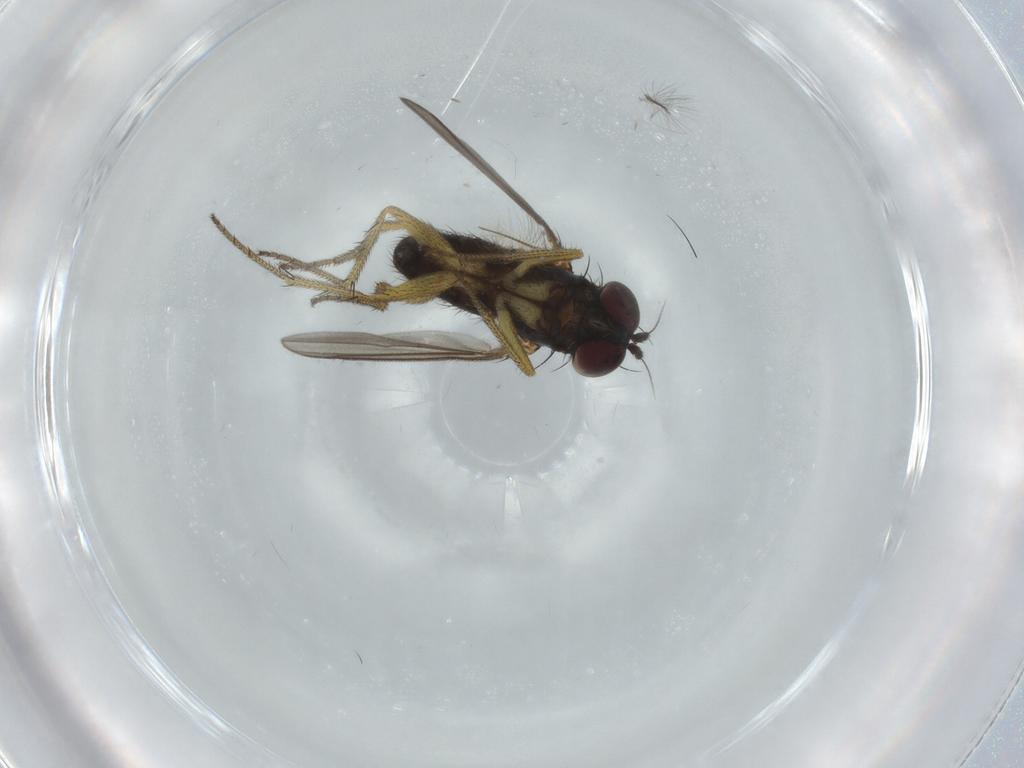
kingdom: Animalia
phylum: Arthropoda
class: Insecta
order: Diptera
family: Dolichopodidae
